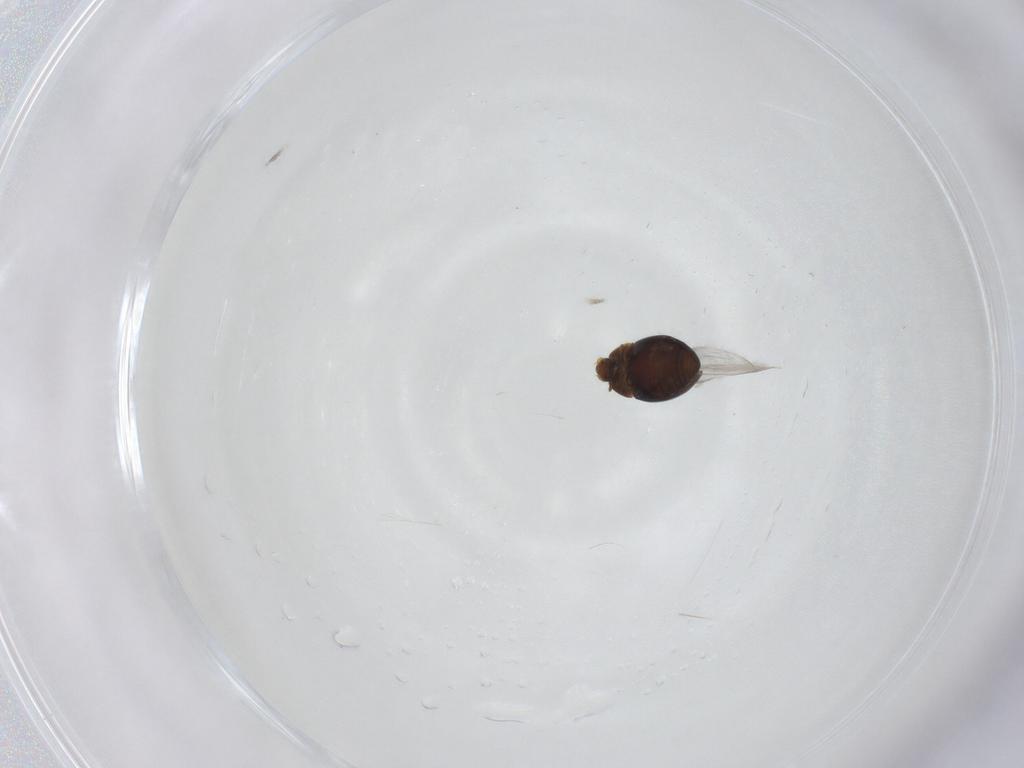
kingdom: Animalia
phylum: Arthropoda
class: Insecta
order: Coleoptera
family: Corylophidae
